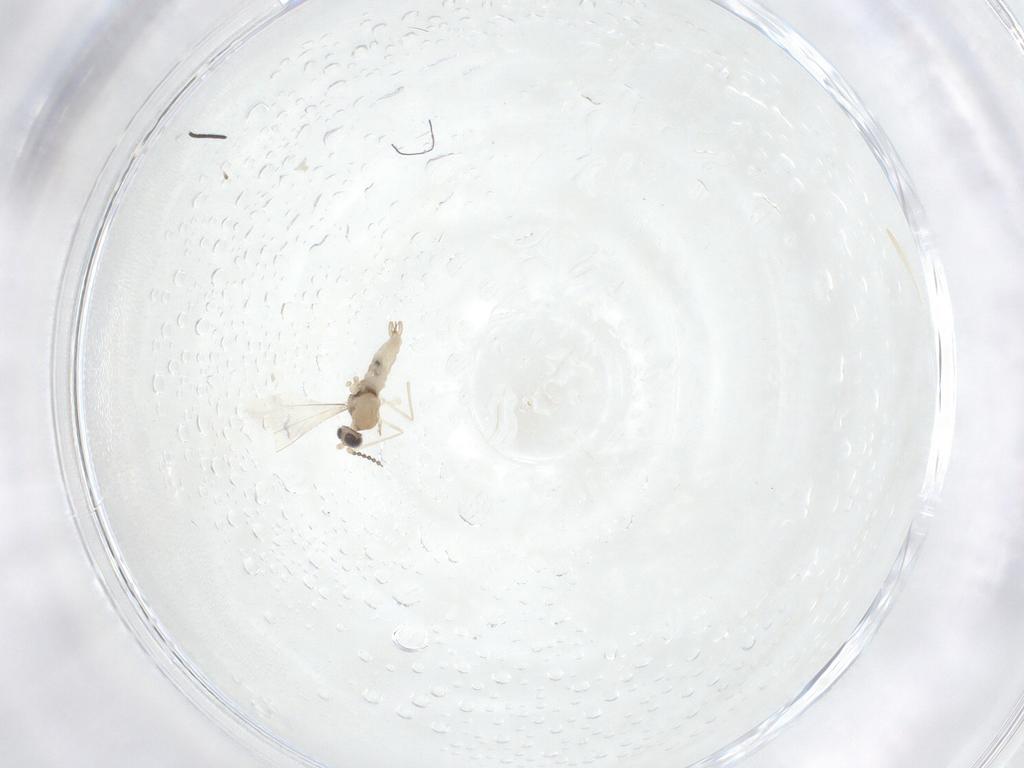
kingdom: Animalia
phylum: Arthropoda
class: Insecta
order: Diptera
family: Cecidomyiidae
